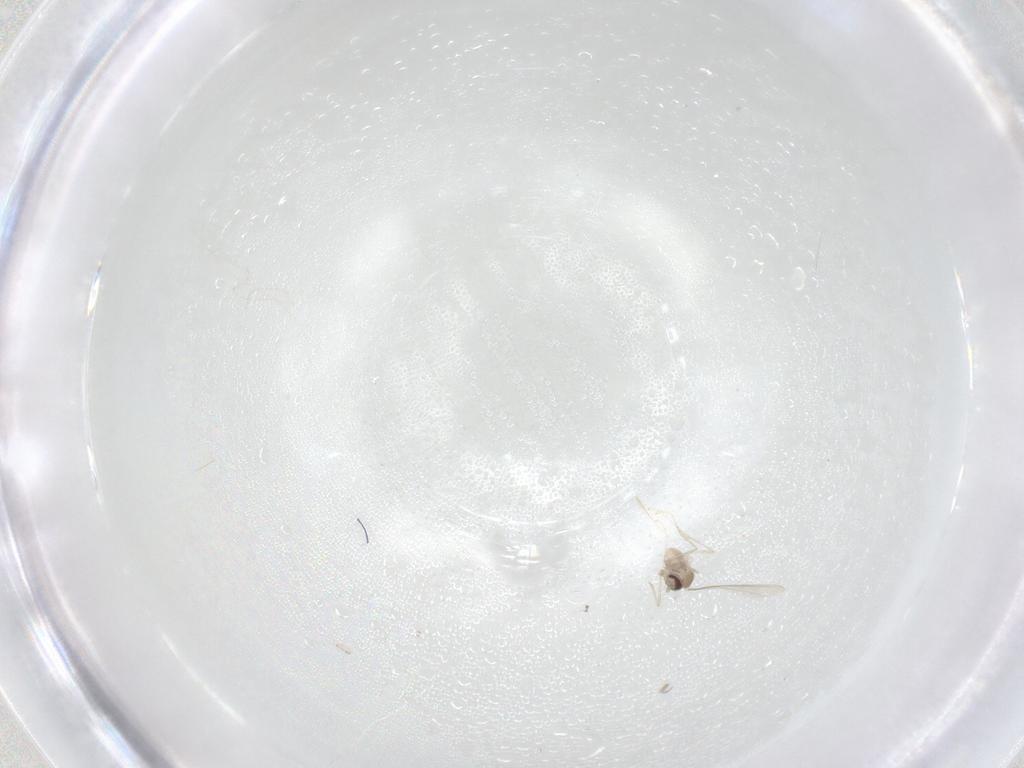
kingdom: Animalia
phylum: Arthropoda
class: Insecta
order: Diptera
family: Culicidae
